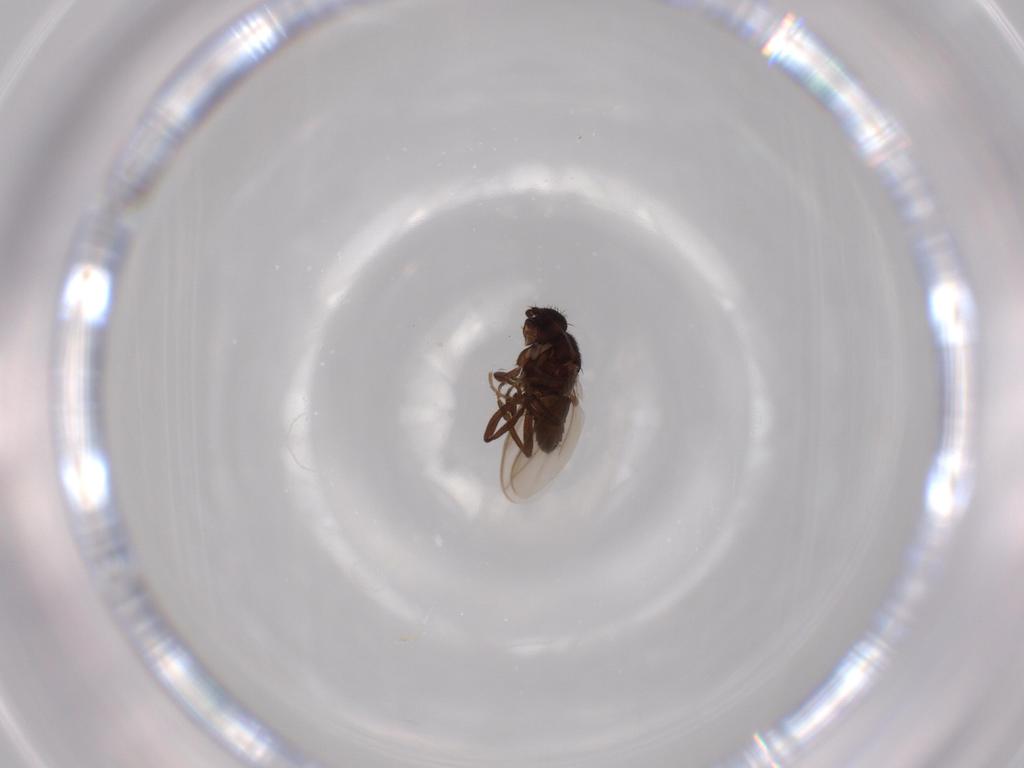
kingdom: Animalia
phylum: Arthropoda
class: Insecta
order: Diptera
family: Sphaeroceridae
